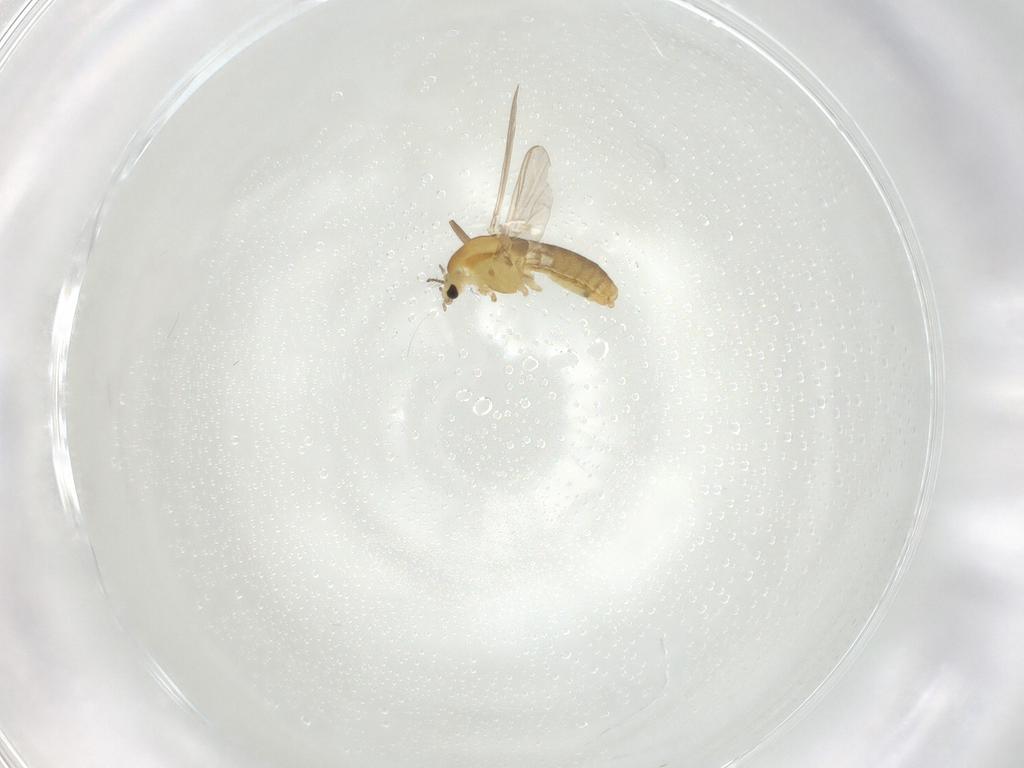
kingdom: Animalia
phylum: Arthropoda
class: Insecta
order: Diptera
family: Chironomidae
